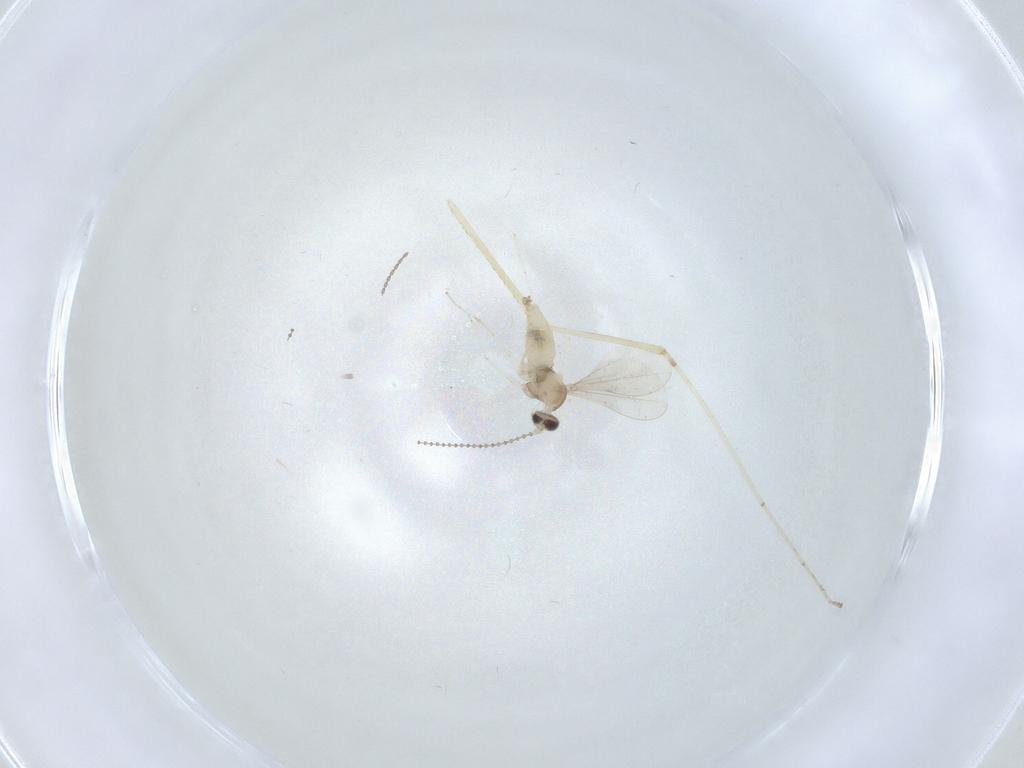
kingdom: Animalia
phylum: Arthropoda
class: Insecta
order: Diptera
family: Cecidomyiidae
